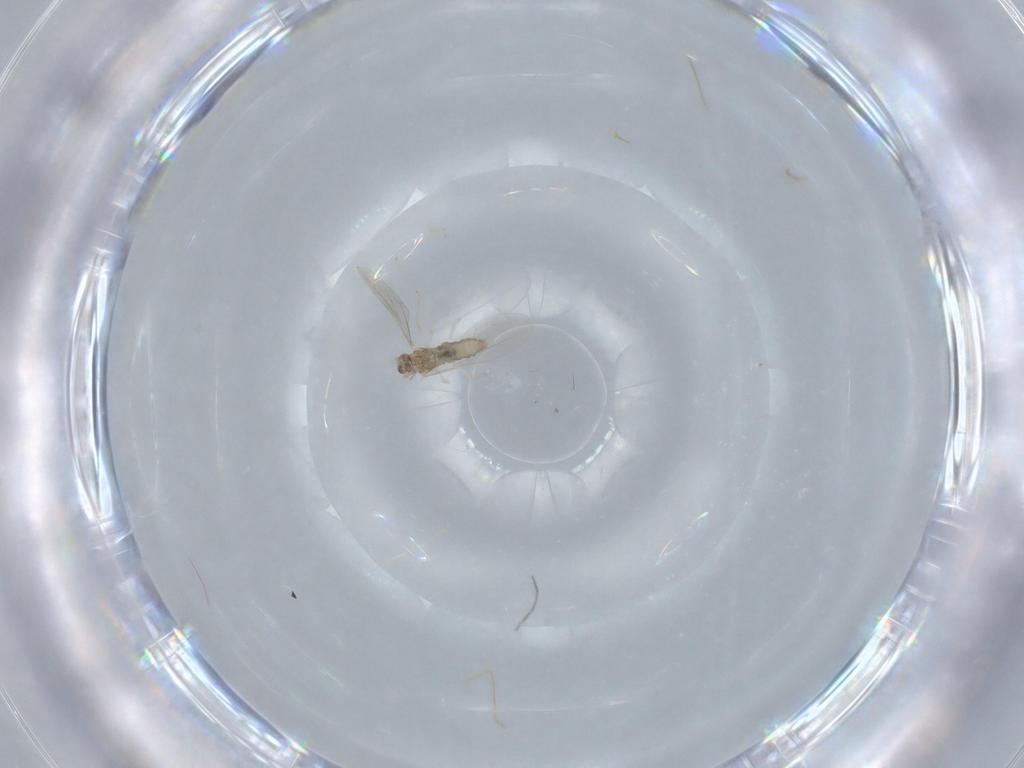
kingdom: Animalia
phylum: Arthropoda
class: Insecta
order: Diptera
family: Cecidomyiidae
